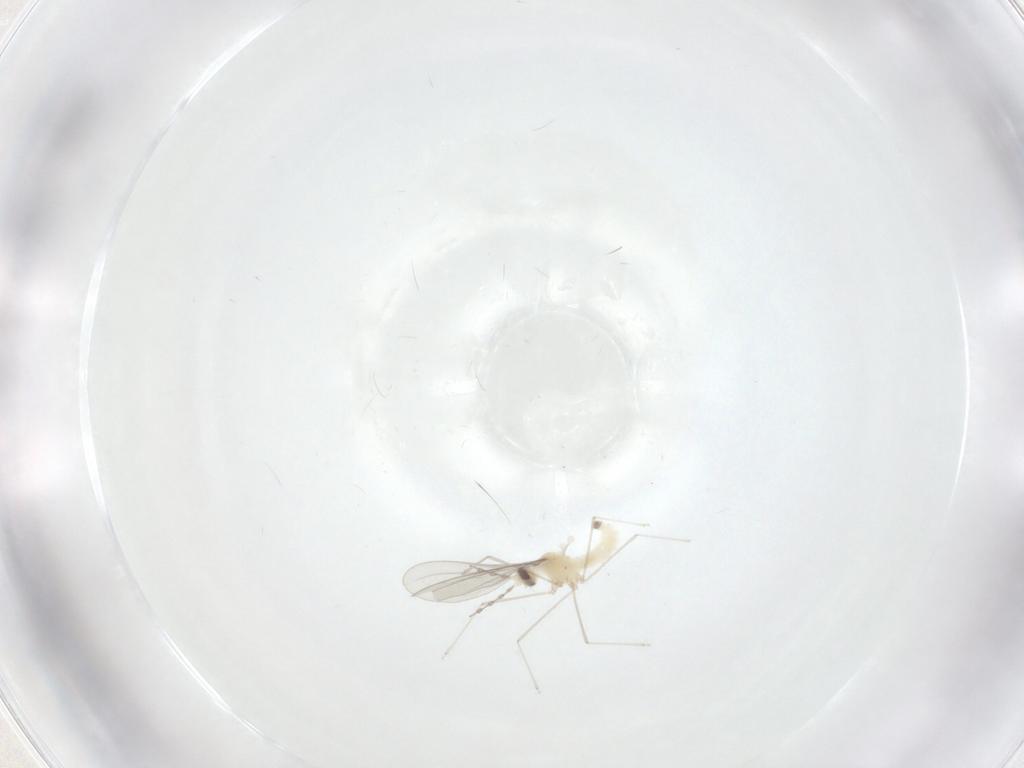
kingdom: Animalia
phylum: Arthropoda
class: Insecta
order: Diptera
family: Cecidomyiidae
